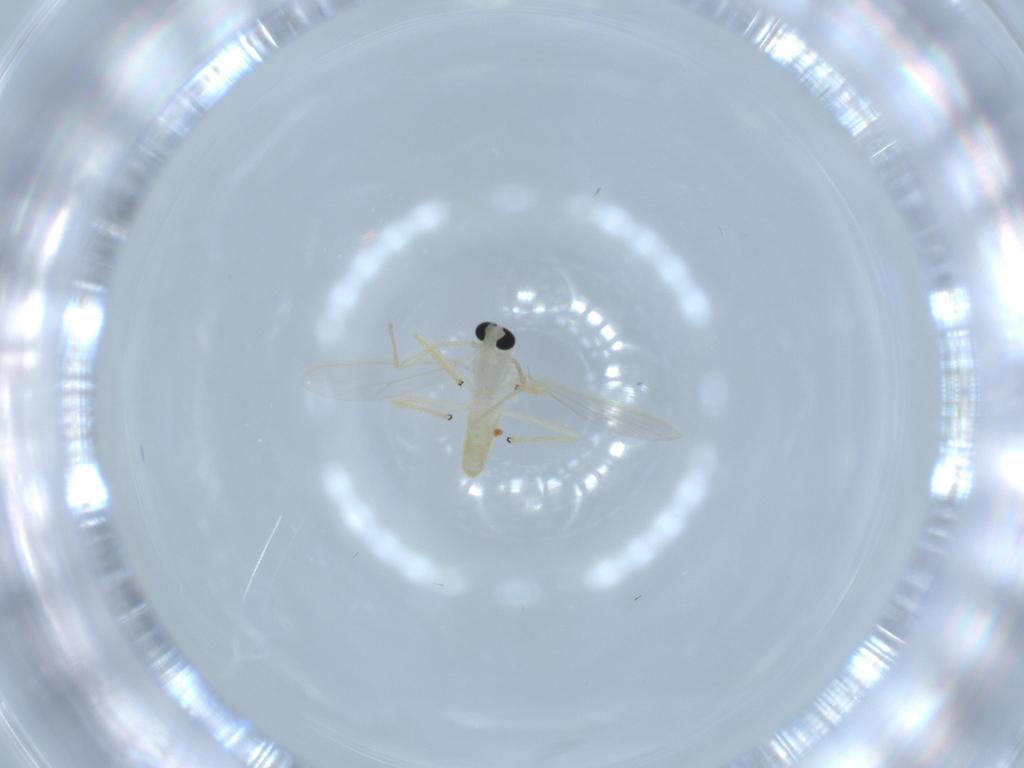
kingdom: Animalia
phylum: Arthropoda
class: Insecta
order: Diptera
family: Chironomidae
